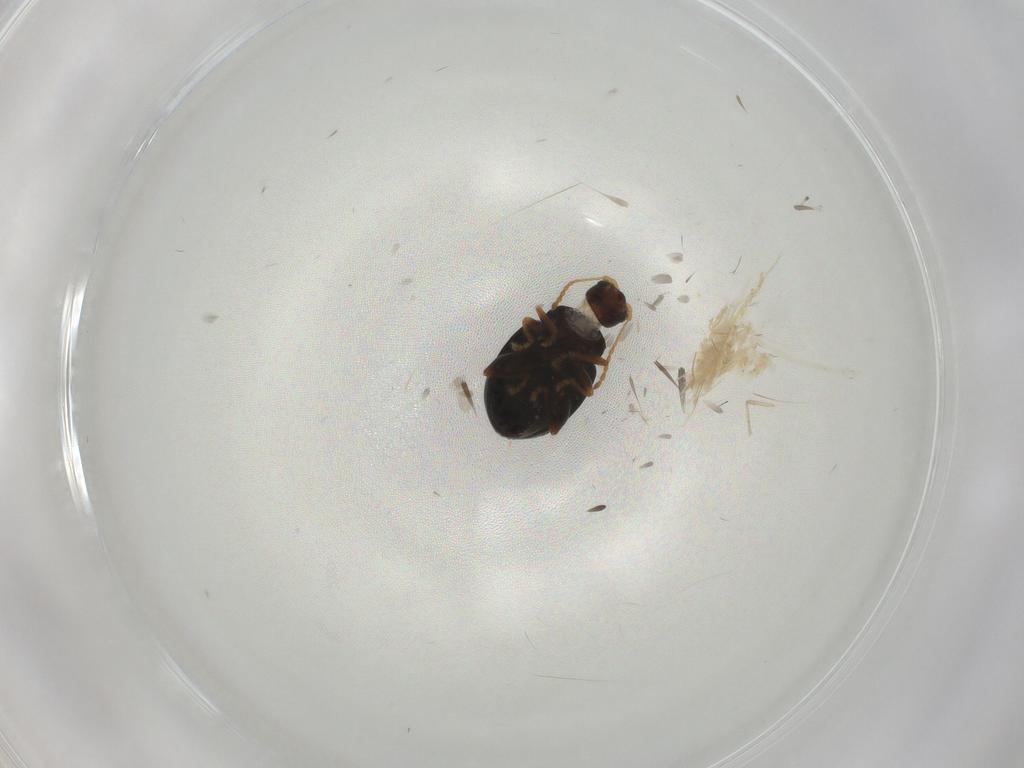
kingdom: Animalia
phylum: Arthropoda
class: Insecta
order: Coleoptera
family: Chrysomelidae
